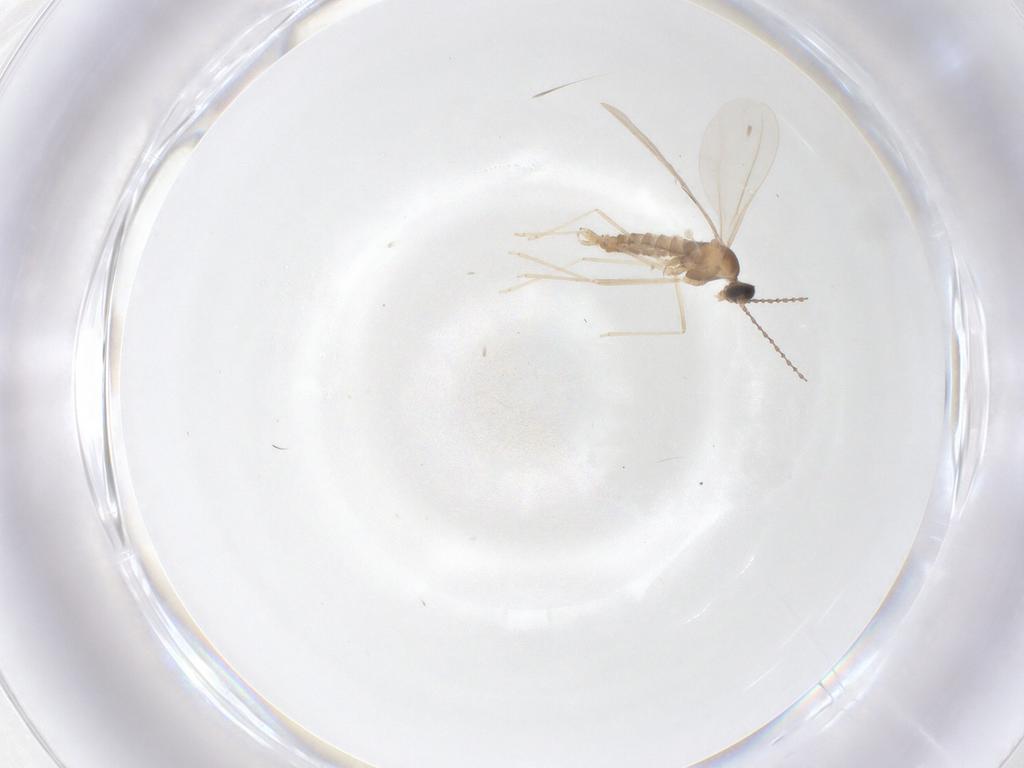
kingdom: Animalia
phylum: Arthropoda
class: Insecta
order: Diptera
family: Cecidomyiidae
